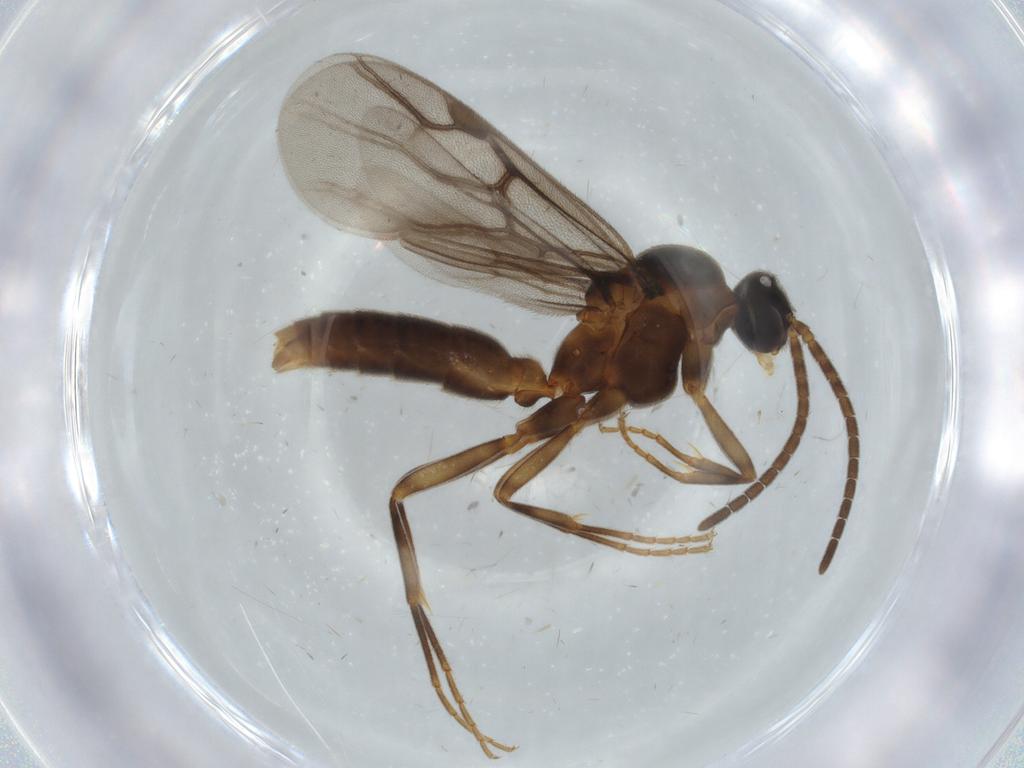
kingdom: Animalia
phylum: Arthropoda
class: Insecta
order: Hymenoptera
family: Formicidae
